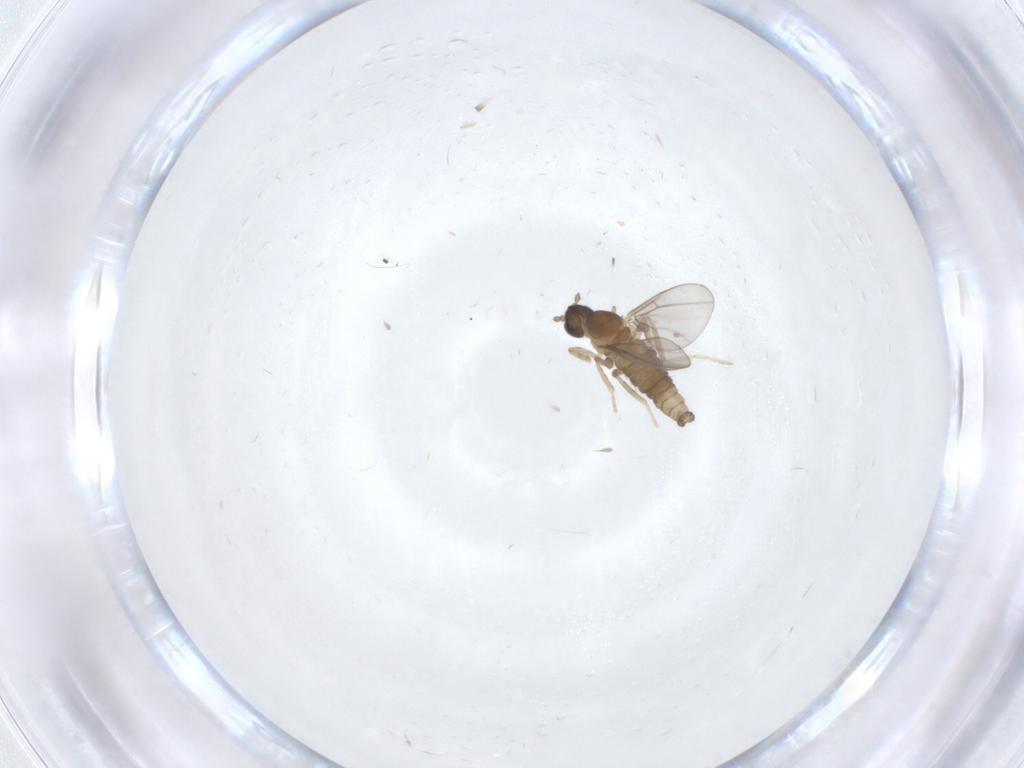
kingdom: Animalia
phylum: Arthropoda
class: Insecta
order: Diptera
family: Cecidomyiidae
